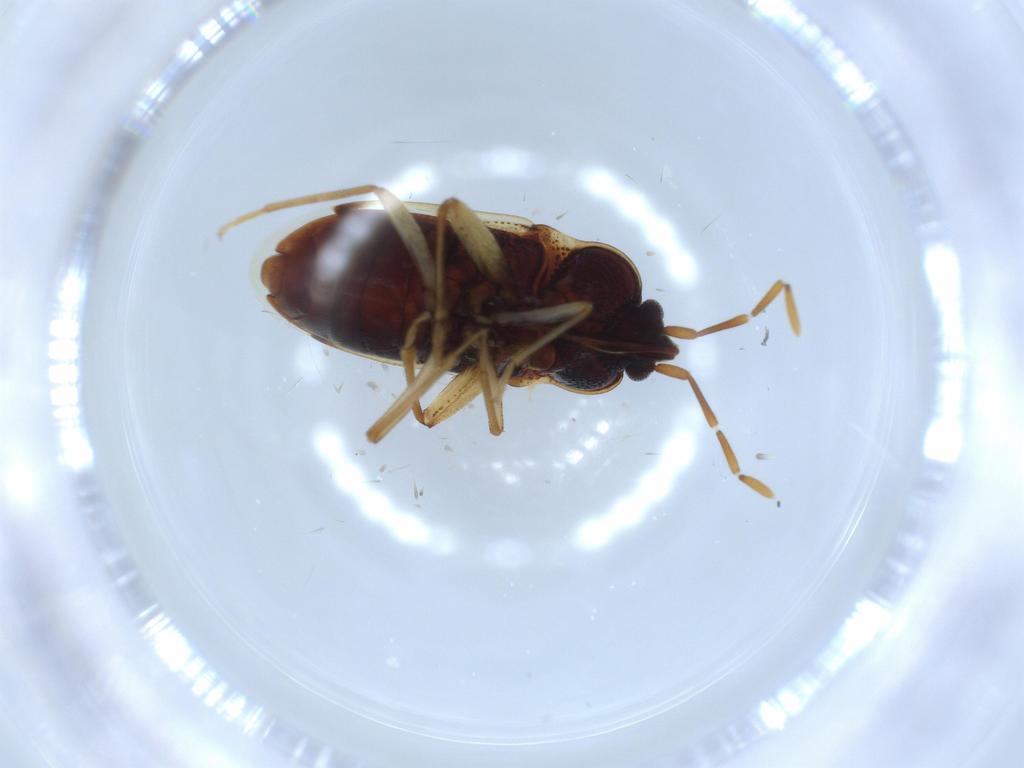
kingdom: Animalia
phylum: Arthropoda
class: Insecta
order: Hemiptera
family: Rhyparochromidae
